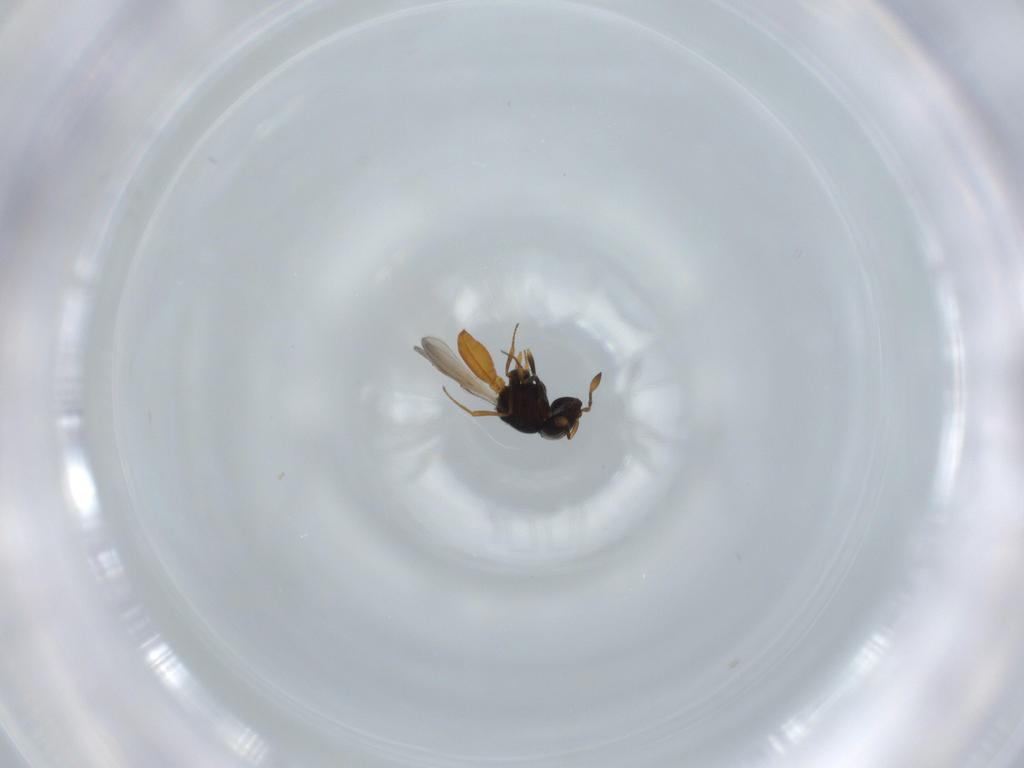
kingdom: Animalia
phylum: Arthropoda
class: Insecta
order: Hymenoptera
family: Scelionidae
